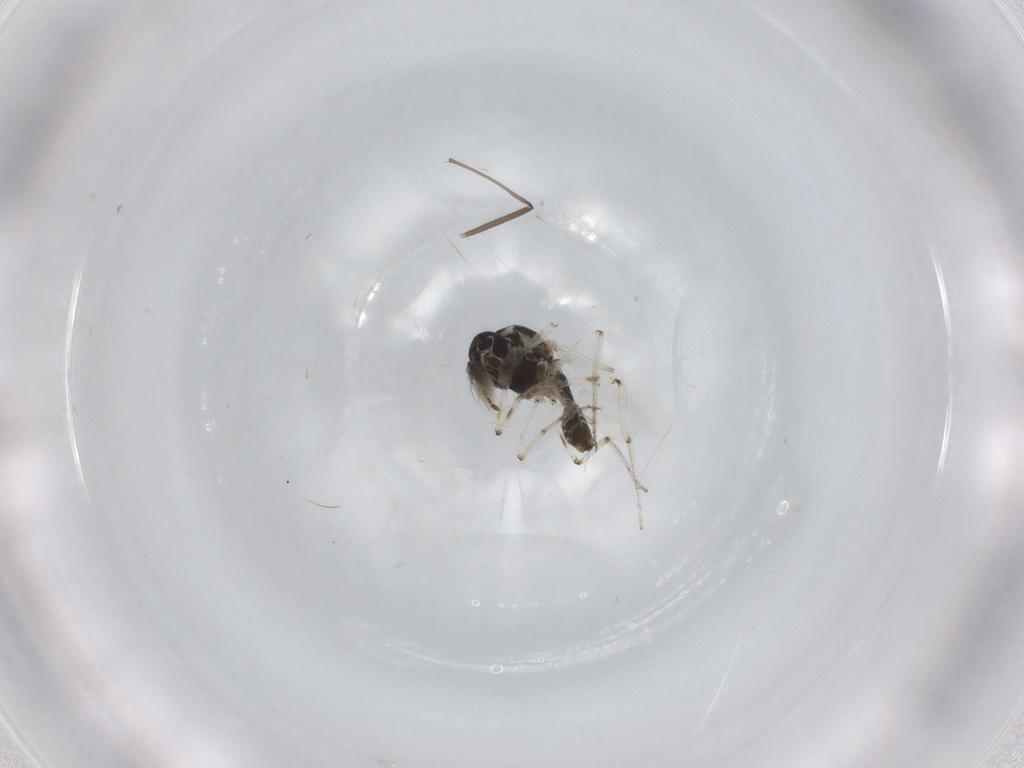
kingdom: Animalia
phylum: Arthropoda
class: Insecta
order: Diptera
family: Ceratopogonidae
